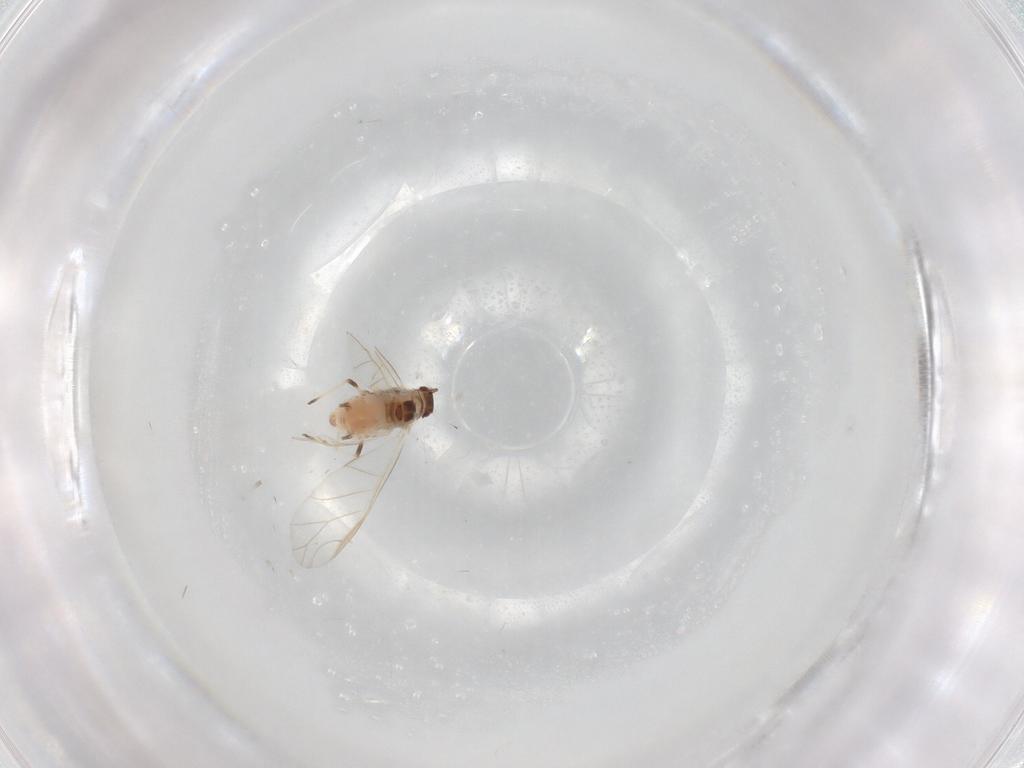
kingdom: Animalia
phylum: Arthropoda
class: Insecta
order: Hemiptera
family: Aphididae
